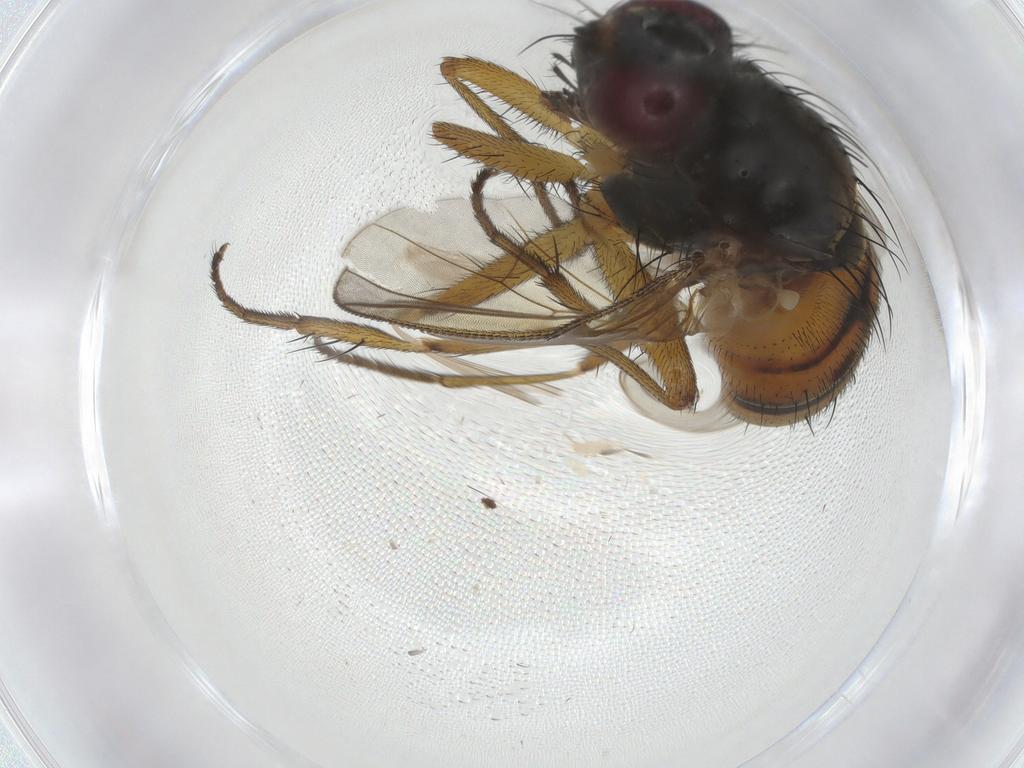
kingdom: Animalia
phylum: Arthropoda
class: Insecta
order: Diptera
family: Muscidae
